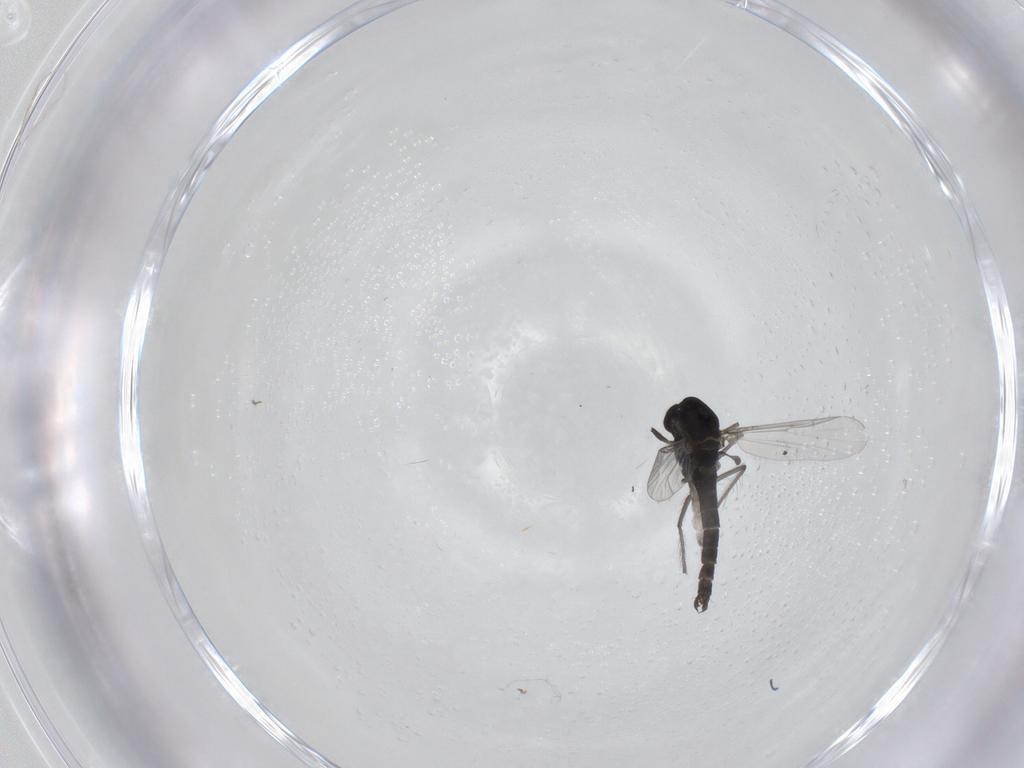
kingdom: Animalia
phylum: Arthropoda
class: Insecta
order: Diptera
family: Chironomidae
